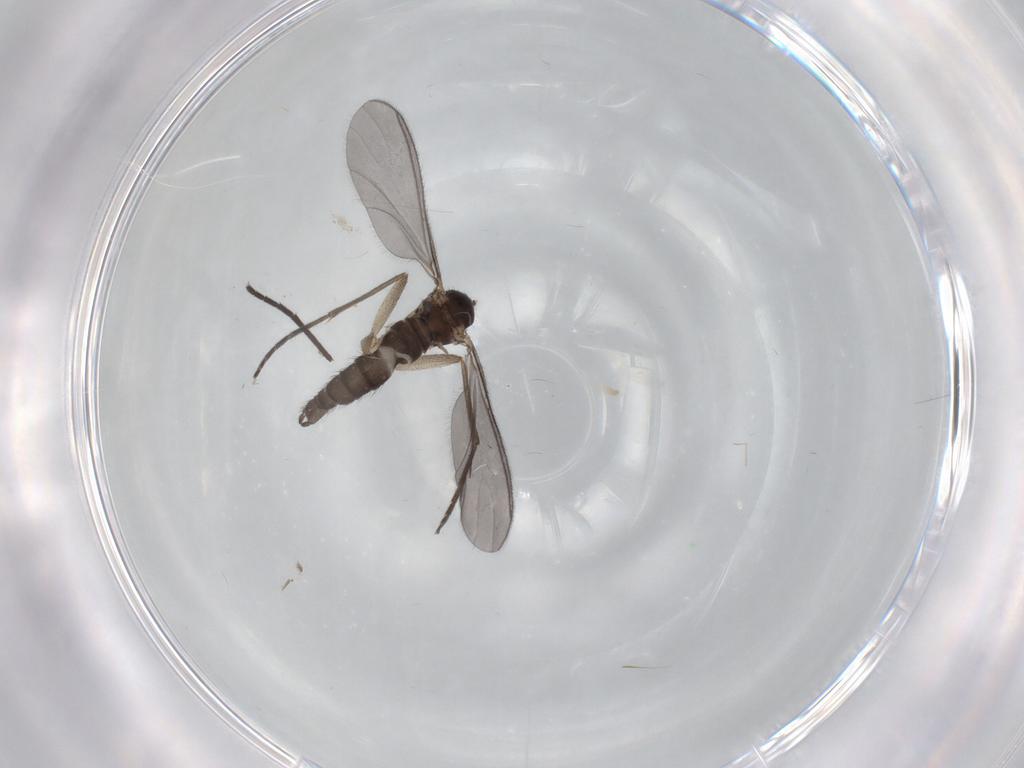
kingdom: Animalia
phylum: Arthropoda
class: Insecta
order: Diptera
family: Sciaridae
